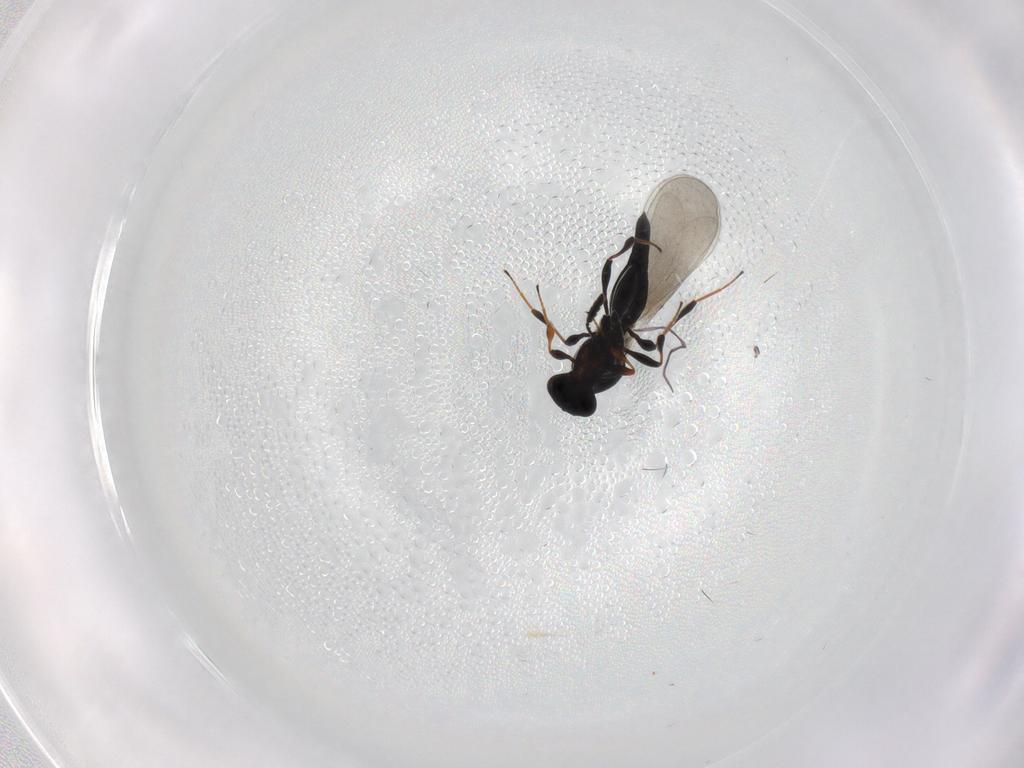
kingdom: Animalia
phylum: Arthropoda
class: Insecta
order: Hymenoptera
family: Platygastridae
